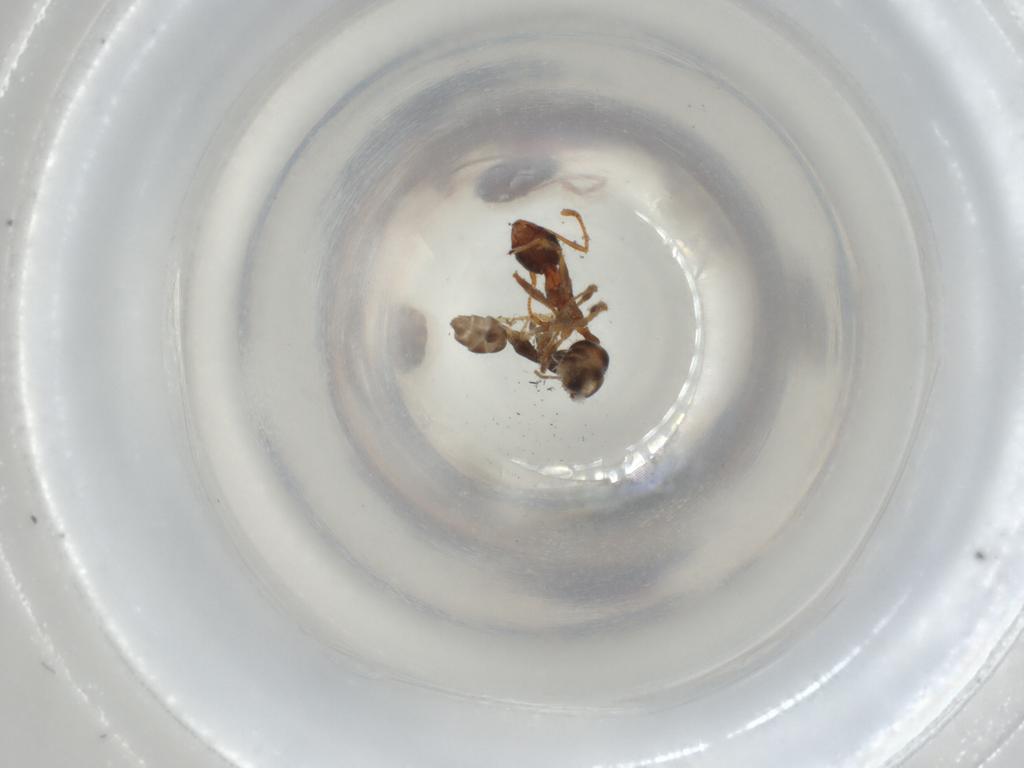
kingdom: Animalia
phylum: Arthropoda
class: Insecta
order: Hymenoptera
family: Formicidae
